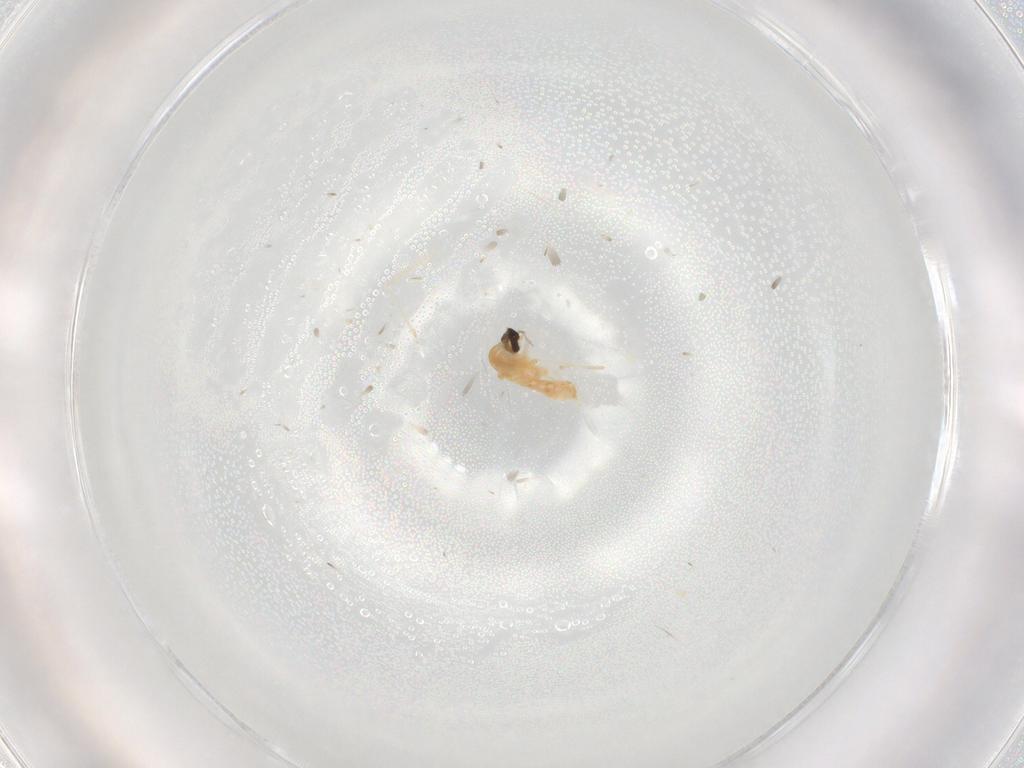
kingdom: Animalia
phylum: Arthropoda
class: Insecta
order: Diptera
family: Cecidomyiidae
